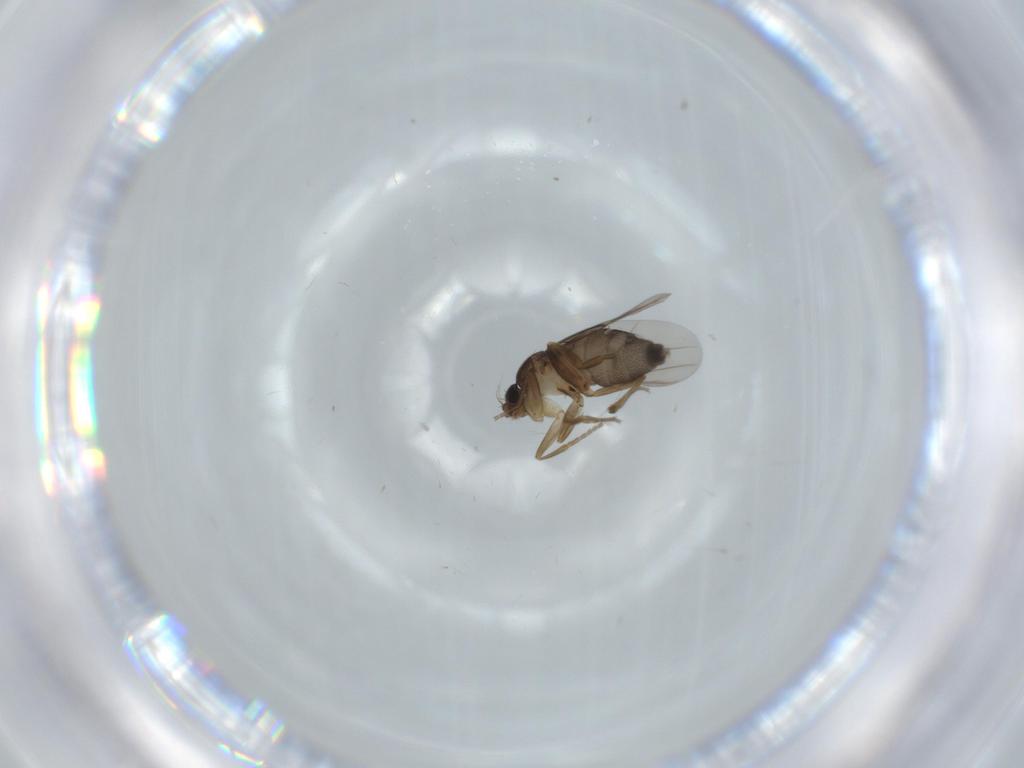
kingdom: Animalia
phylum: Arthropoda
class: Insecta
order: Diptera
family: Phoridae
